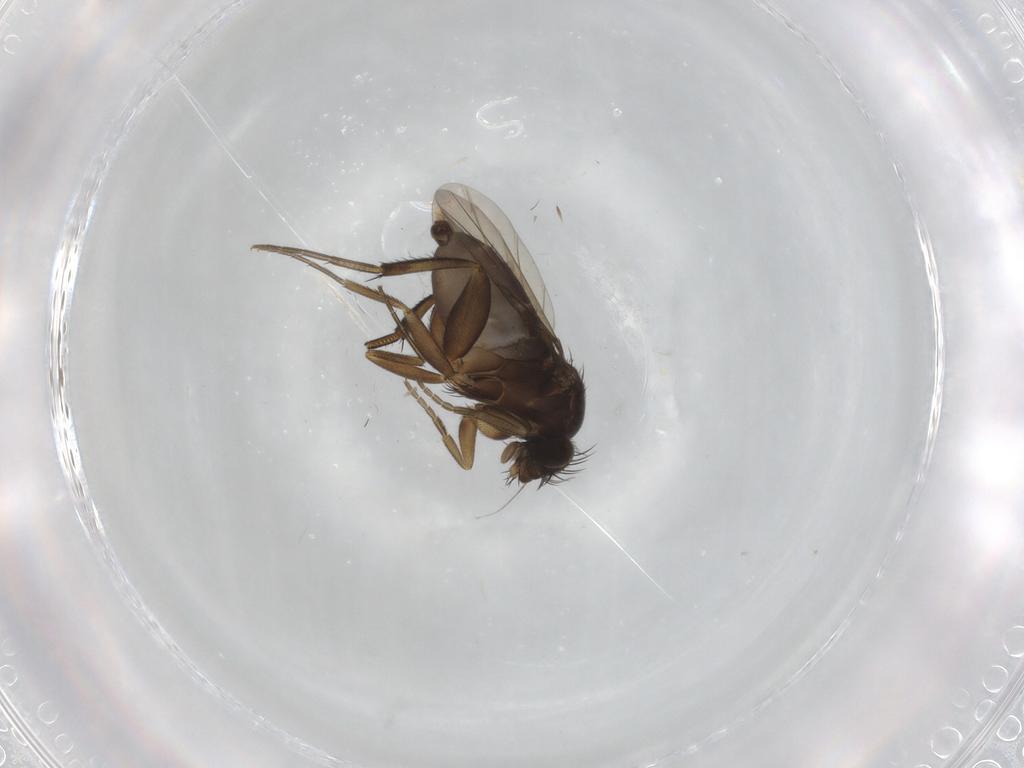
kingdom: Animalia
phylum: Arthropoda
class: Insecta
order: Diptera
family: Phoridae
